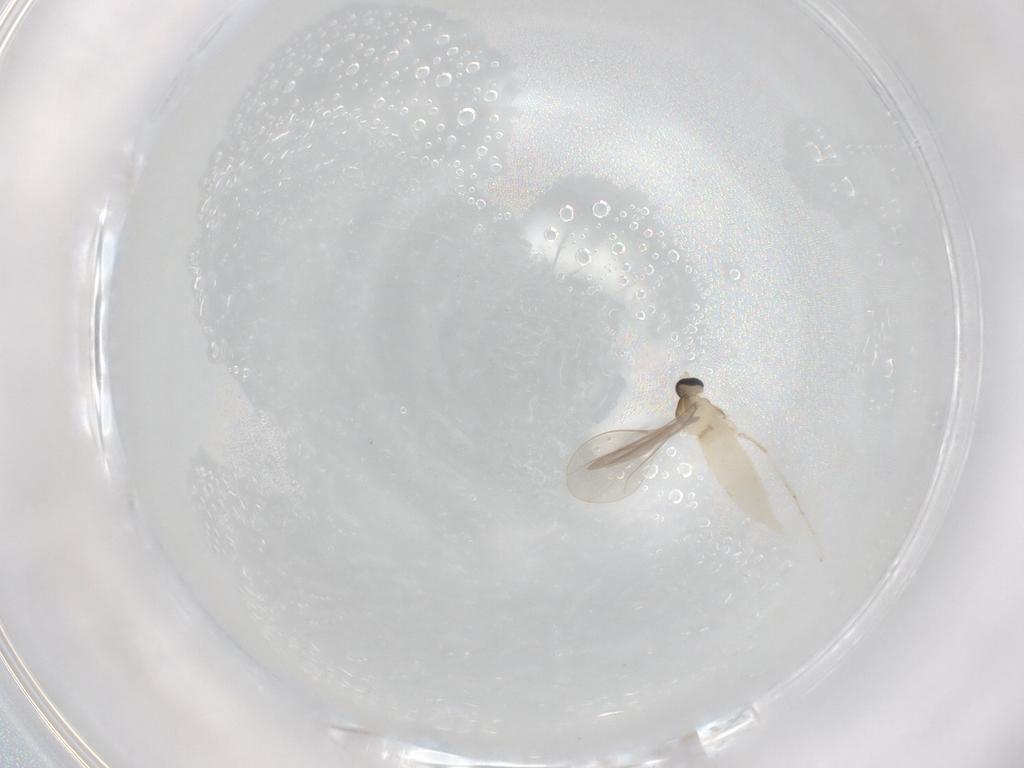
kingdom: Animalia
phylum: Arthropoda
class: Insecta
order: Diptera
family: Cecidomyiidae
